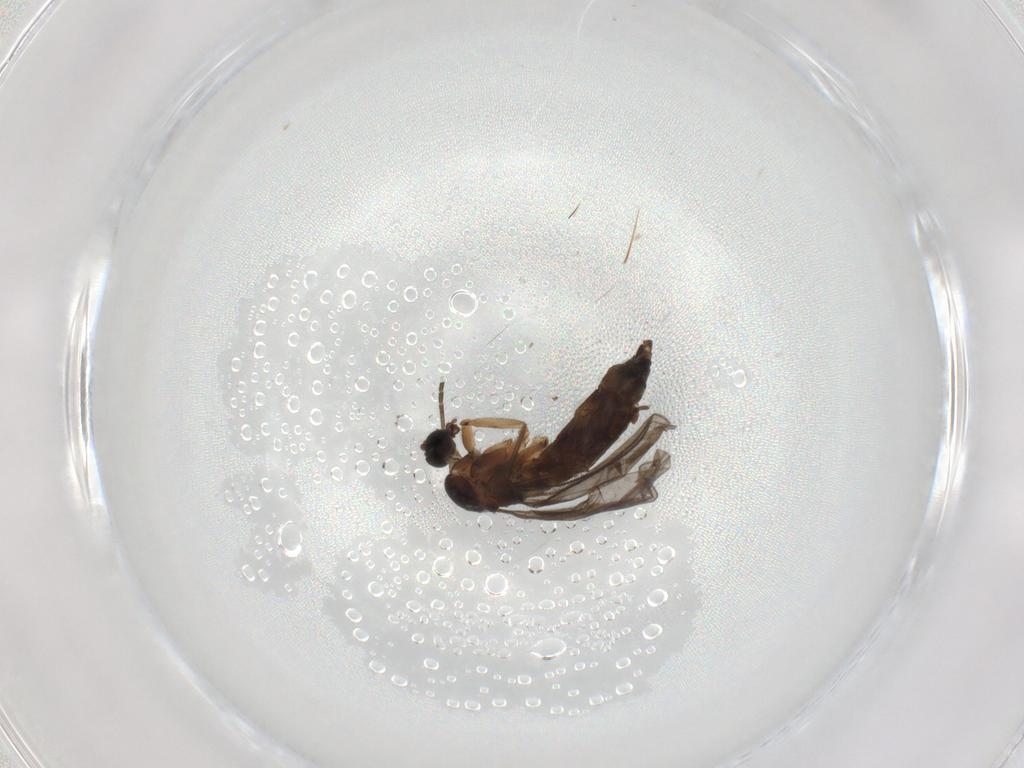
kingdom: Animalia
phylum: Arthropoda
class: Insecta
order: Diptera
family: Sciaridae
